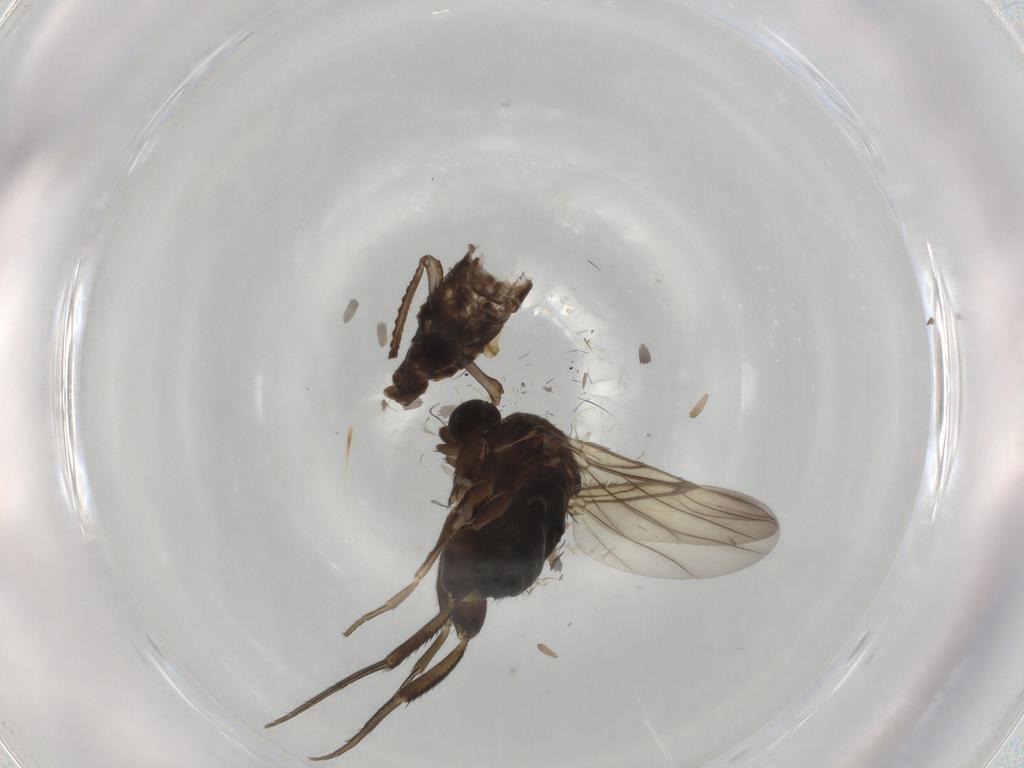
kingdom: Animalia
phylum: Arthropoda
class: Insecta
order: Diptera
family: Phoridae
